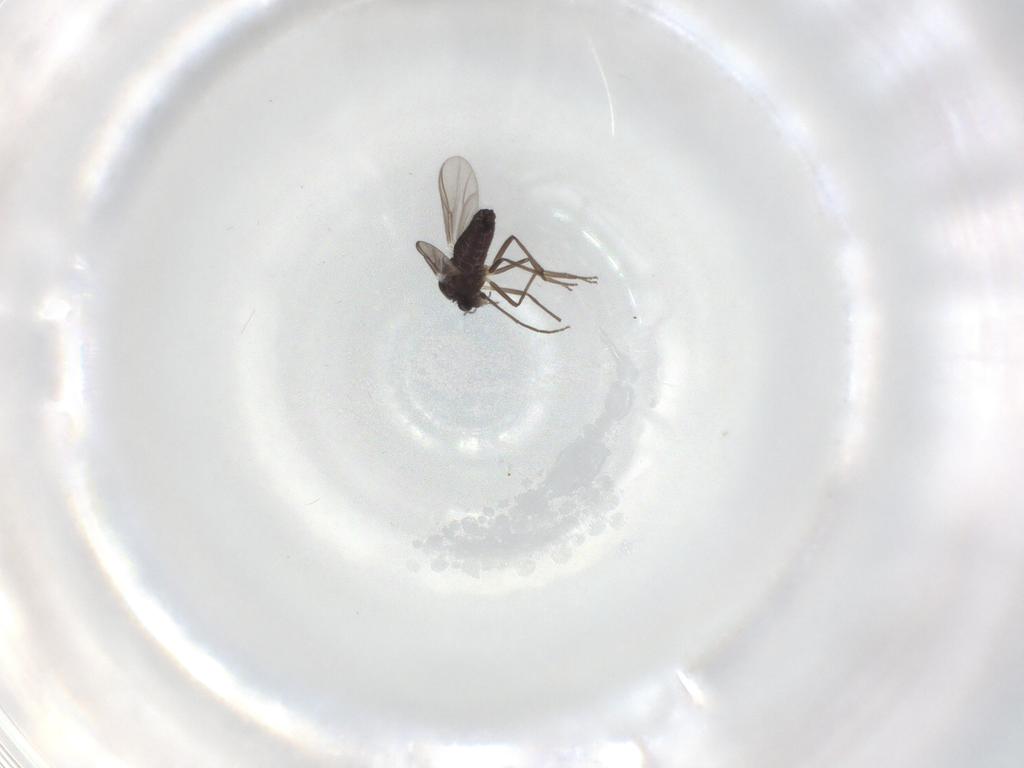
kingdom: Animalia
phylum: Arthropoda
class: Insecta
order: Diptera
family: Chironomidae
